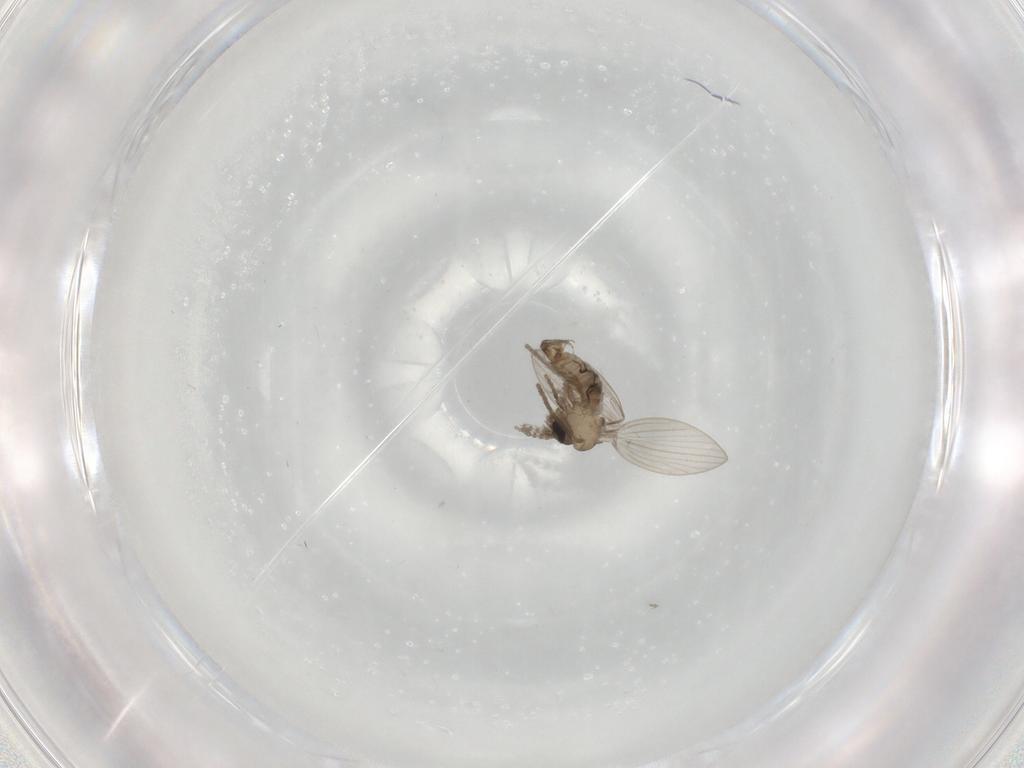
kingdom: Animalia
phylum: Arthropoda
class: Insecta
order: Diptera
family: Psychodidae
